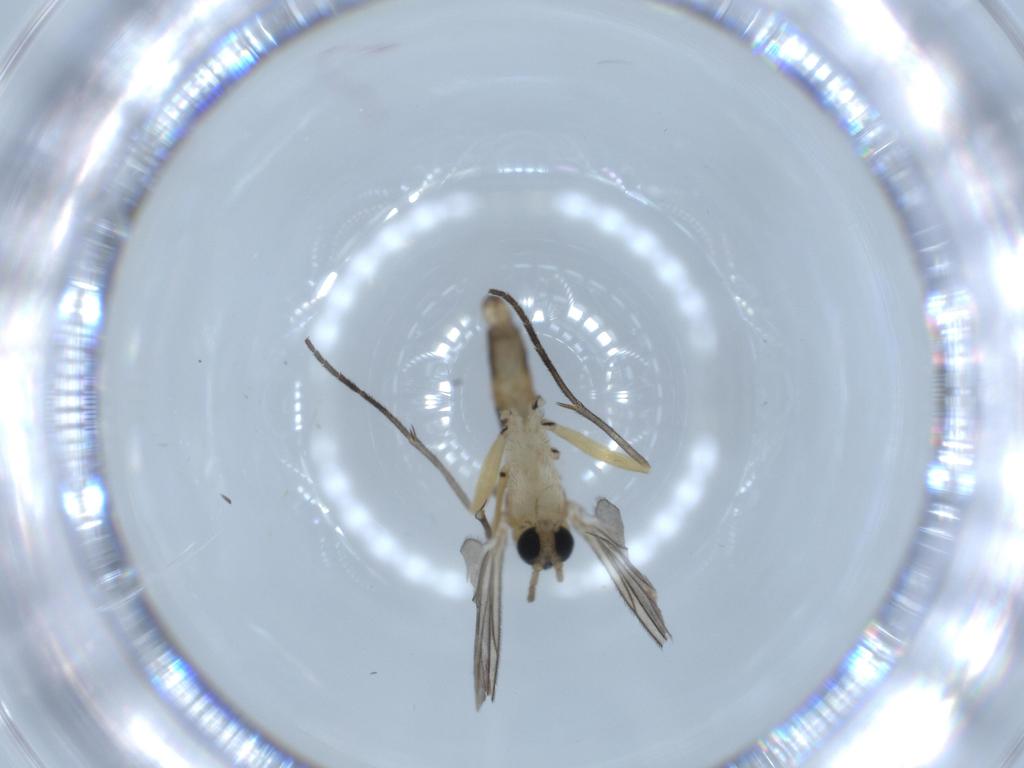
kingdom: Animalia
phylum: Arthropoda
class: Insecta
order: Diptera
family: Sciaridae
